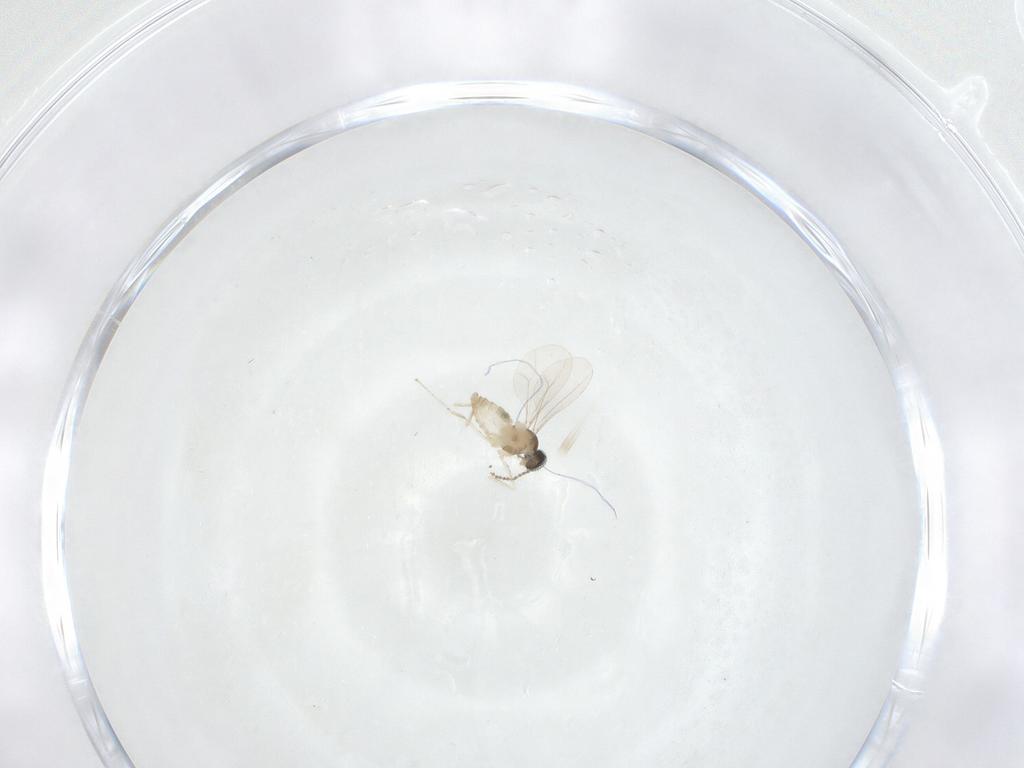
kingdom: Animalia
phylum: Arthropoda
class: Insecta
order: Diptera
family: Cecidomyiidae
